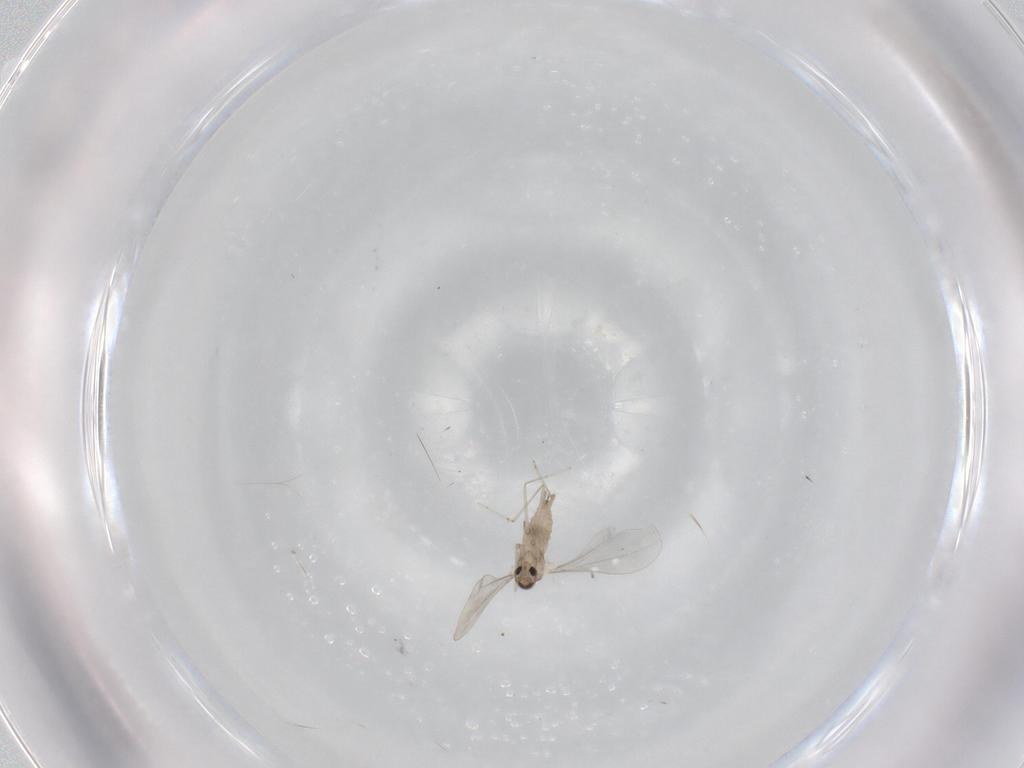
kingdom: Animalia
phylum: Arthropoda
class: Insecta
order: Diptera
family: Cecidomyiidae
